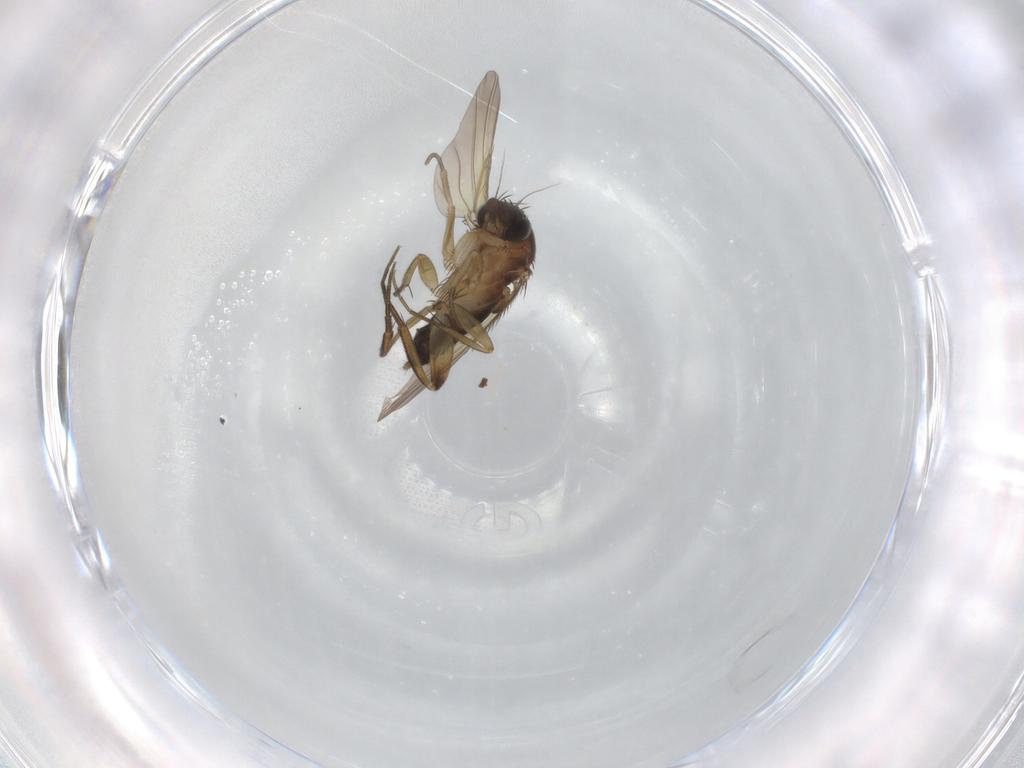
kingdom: Animalia
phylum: Arthropoda
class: Insecta
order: Diptera
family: Phoridae
